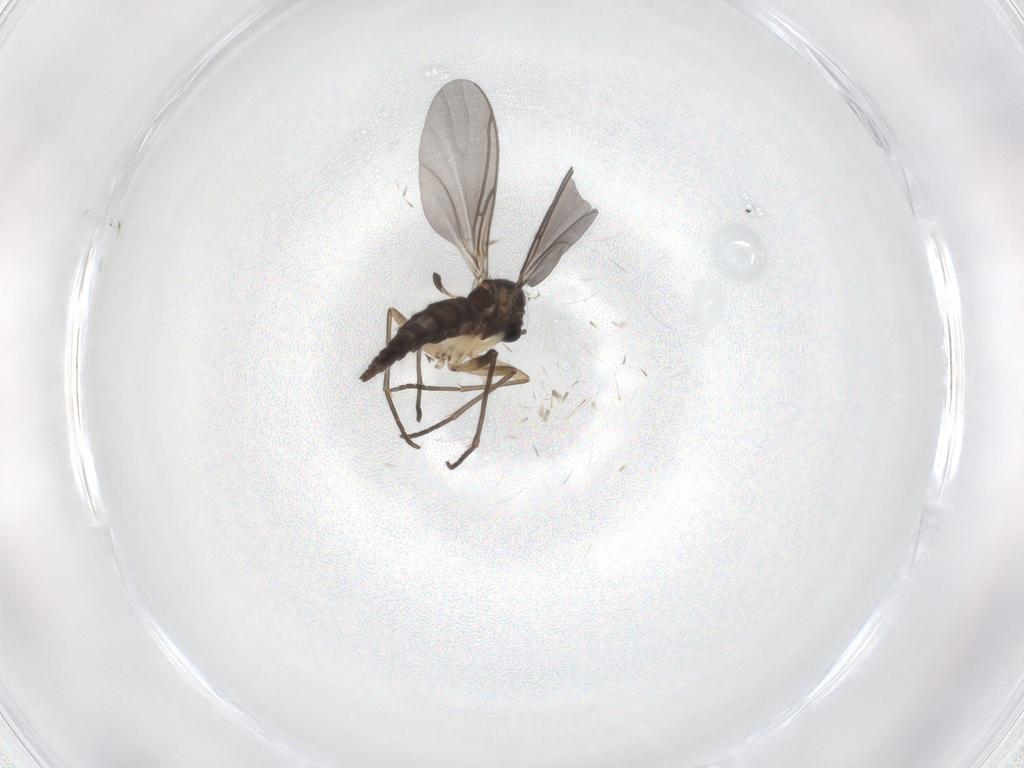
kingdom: Animalia
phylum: Arthropoda
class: Insecta
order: Diptera
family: Sciaridae
